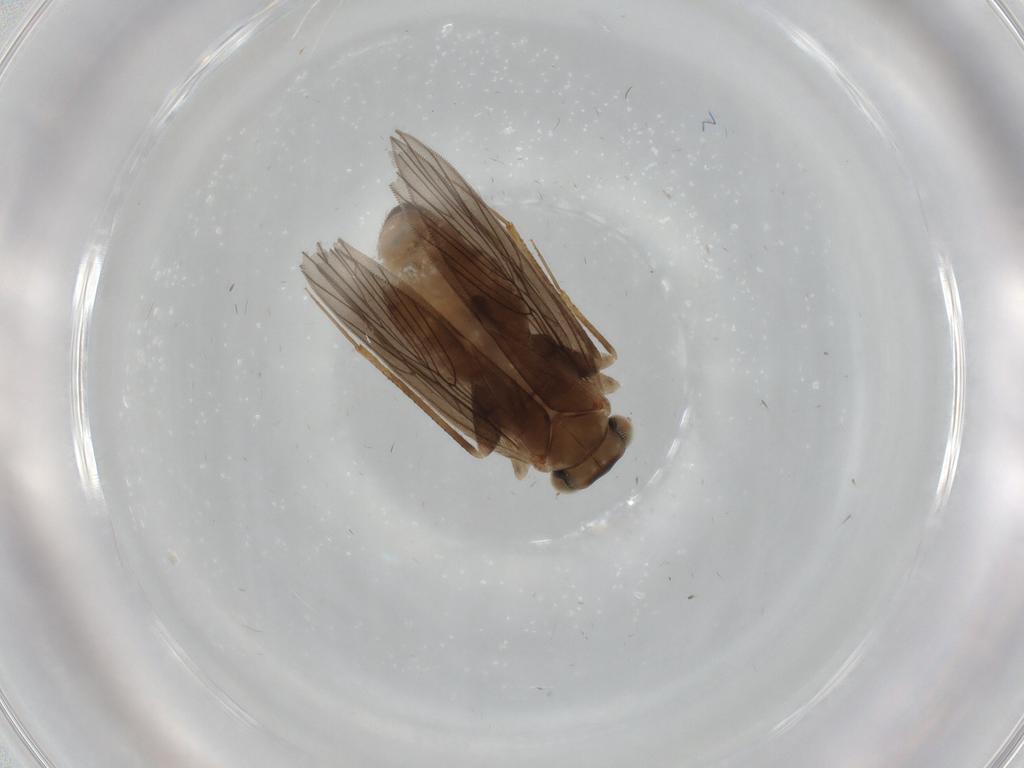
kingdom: Animalia
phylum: Arthropoda
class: Insecta
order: Psocodea
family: Lepidopsocidae
